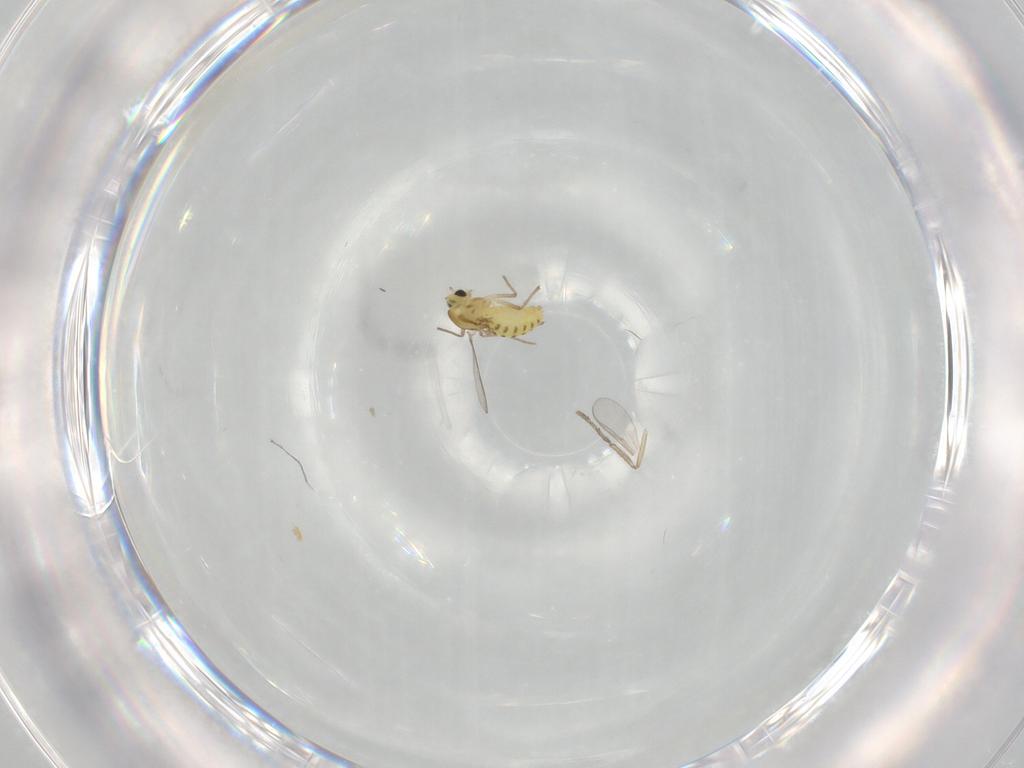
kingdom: Animalia
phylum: Arthropoda
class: Insecta
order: Diptera
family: Chironomidae
